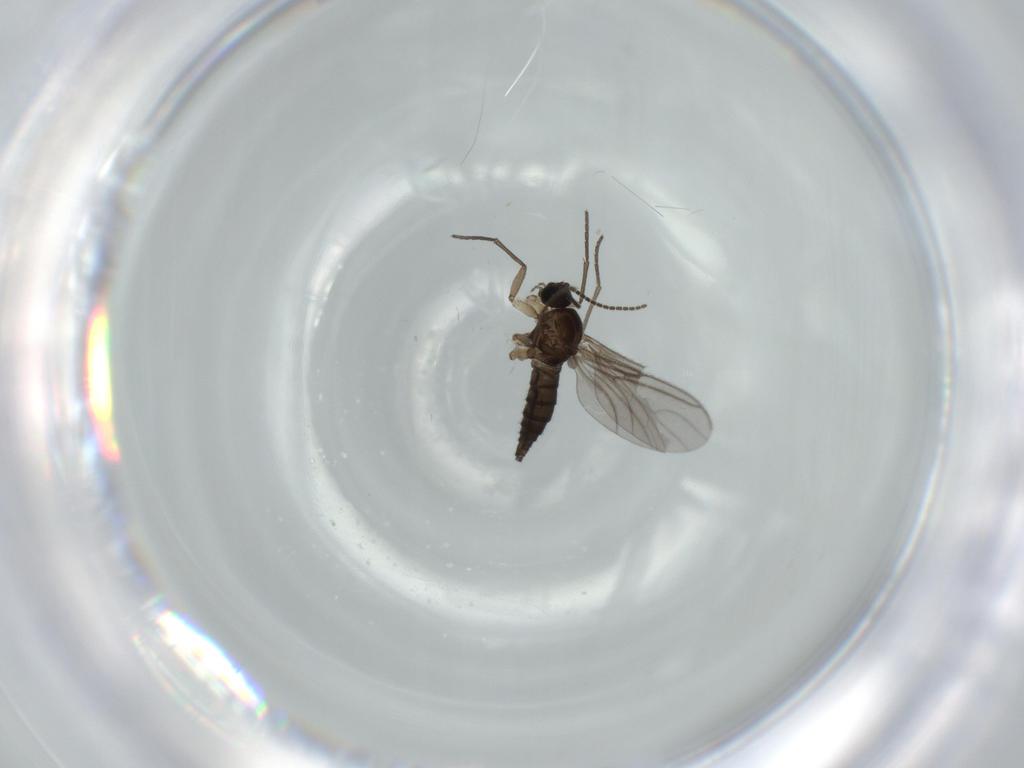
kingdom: Animalia
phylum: Arthropoda
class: Insecta
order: Diptera
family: Sciaridae
